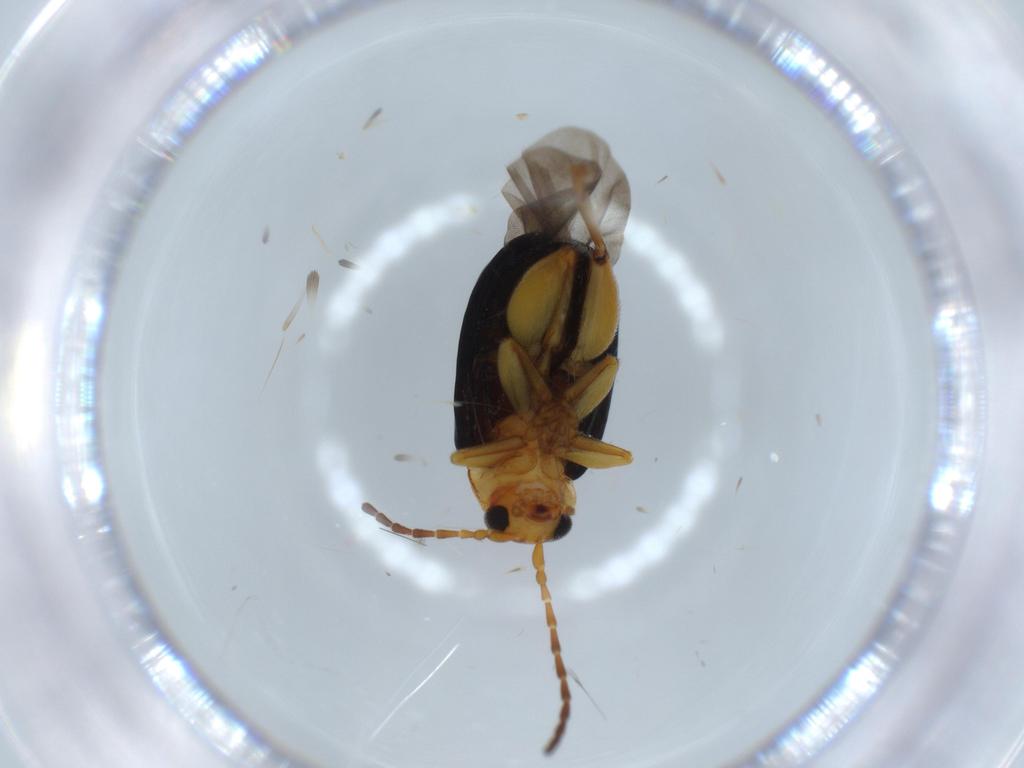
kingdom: Animalia
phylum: Arthropoda
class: Insecta
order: Coleoptera
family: Chrysomelidae
